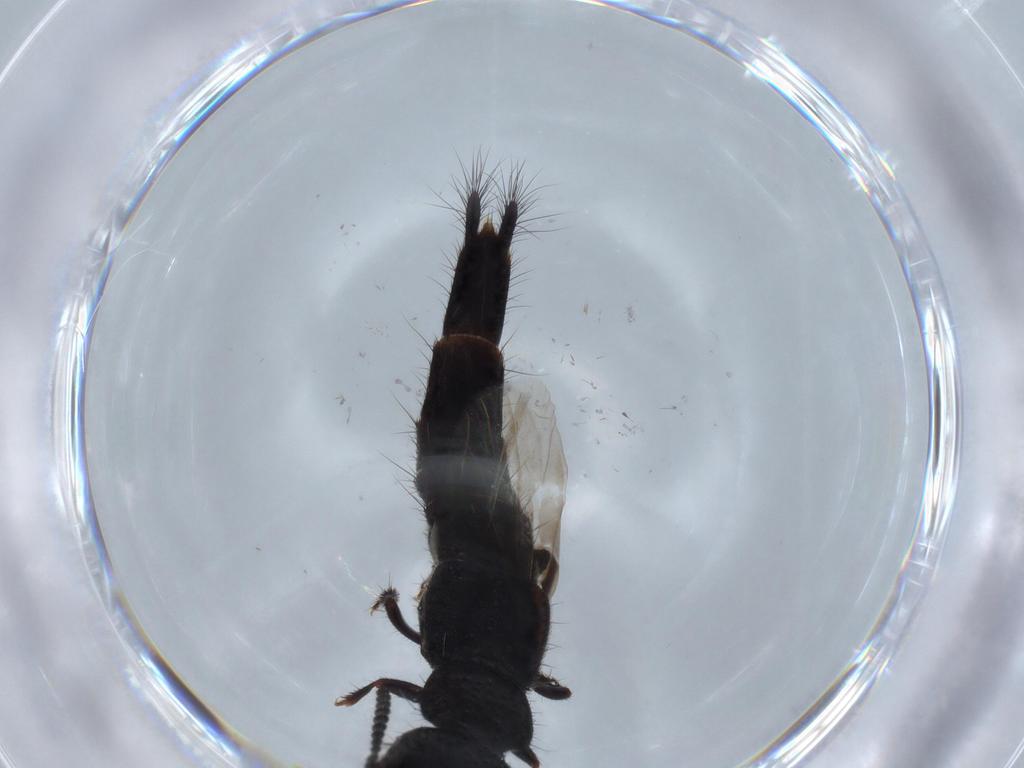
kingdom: Animalia
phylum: Arthropoda
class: Insecta
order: Coleoptera
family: Staphylinidae
